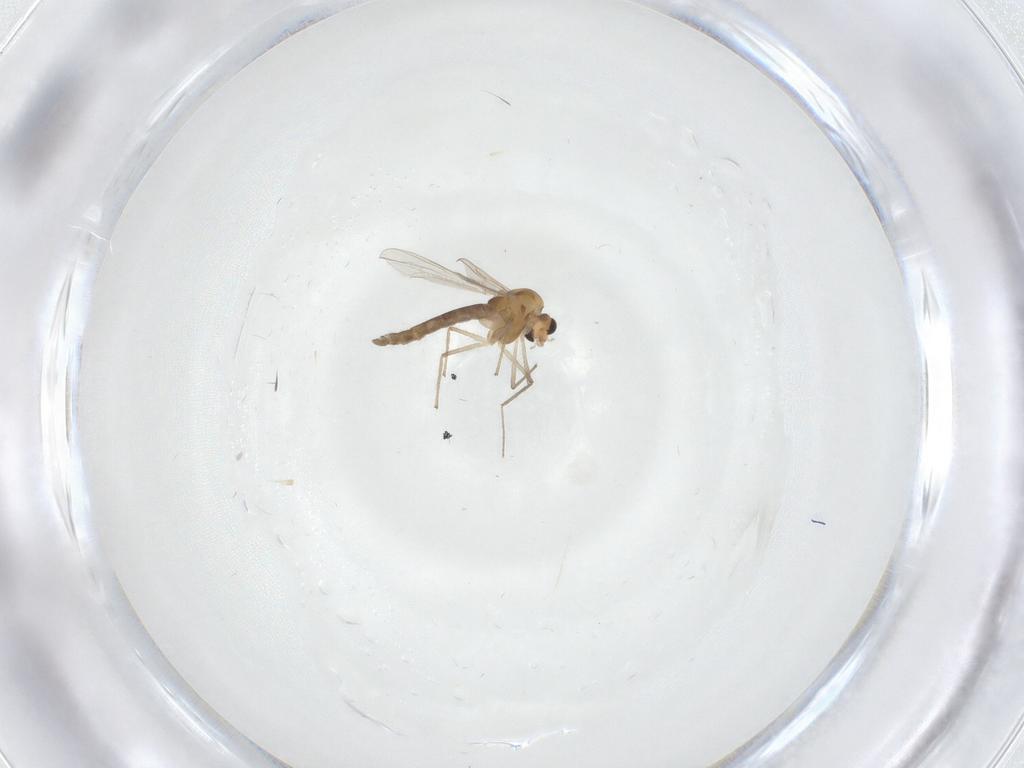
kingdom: Animalia
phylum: Arthropoda
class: Insecta
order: Diptera
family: Chironomidae
